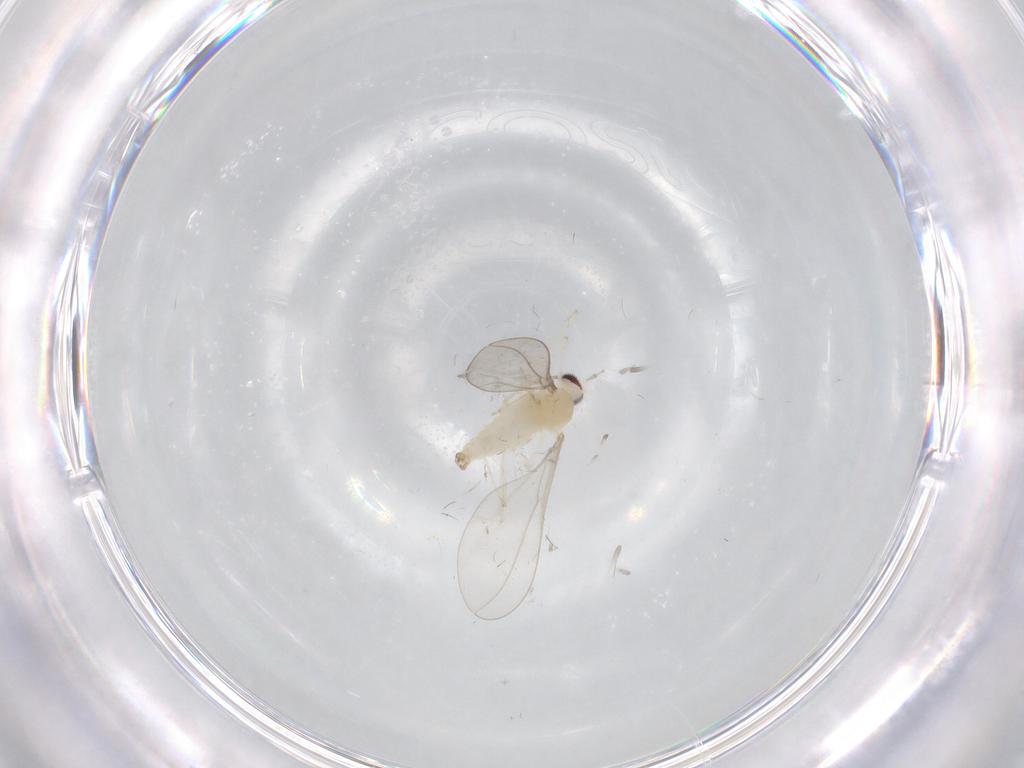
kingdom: Animalia
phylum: Arthropoda
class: Insecta
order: Diptera
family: Cecidomyiidae
